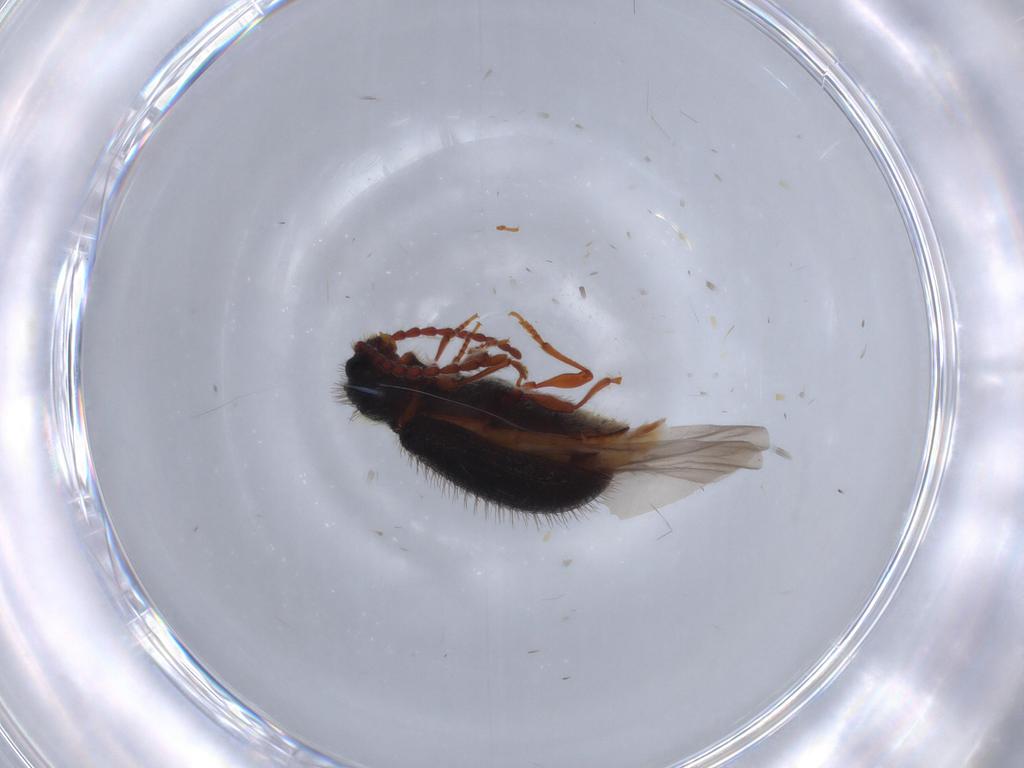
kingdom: Animalia
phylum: Arthropoda
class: Insecta
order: Coleoptera
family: Ptinidae
